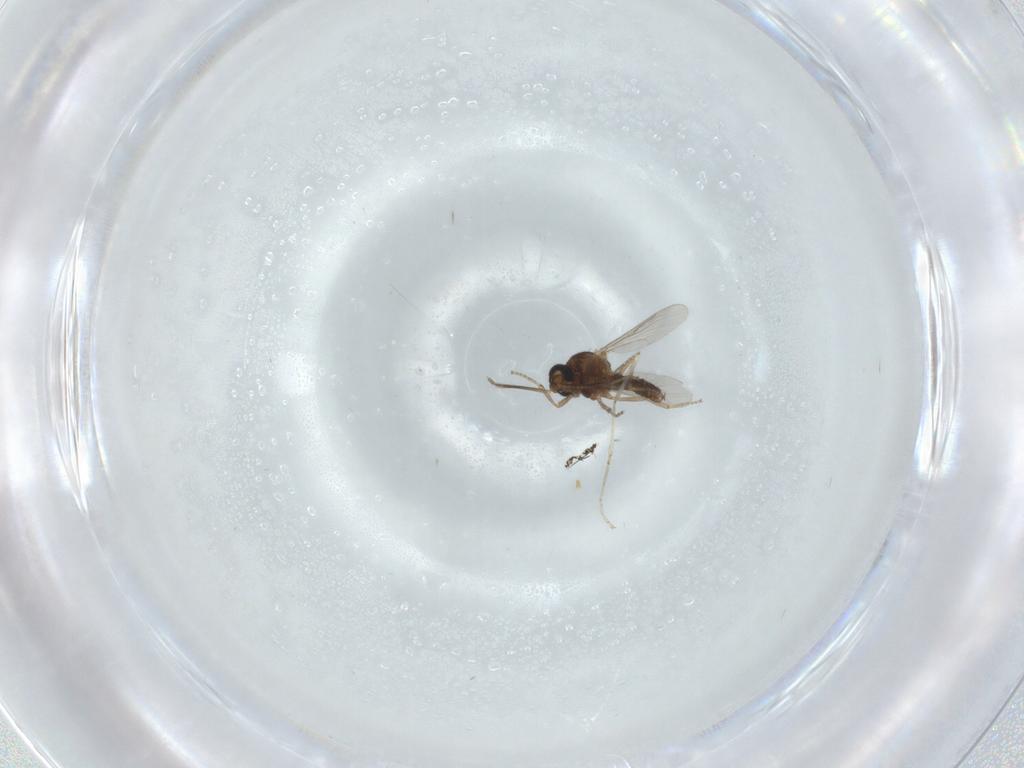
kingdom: Animalia
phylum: Arthropoda
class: Insecta
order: Diptera
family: Ceratopogonidae
